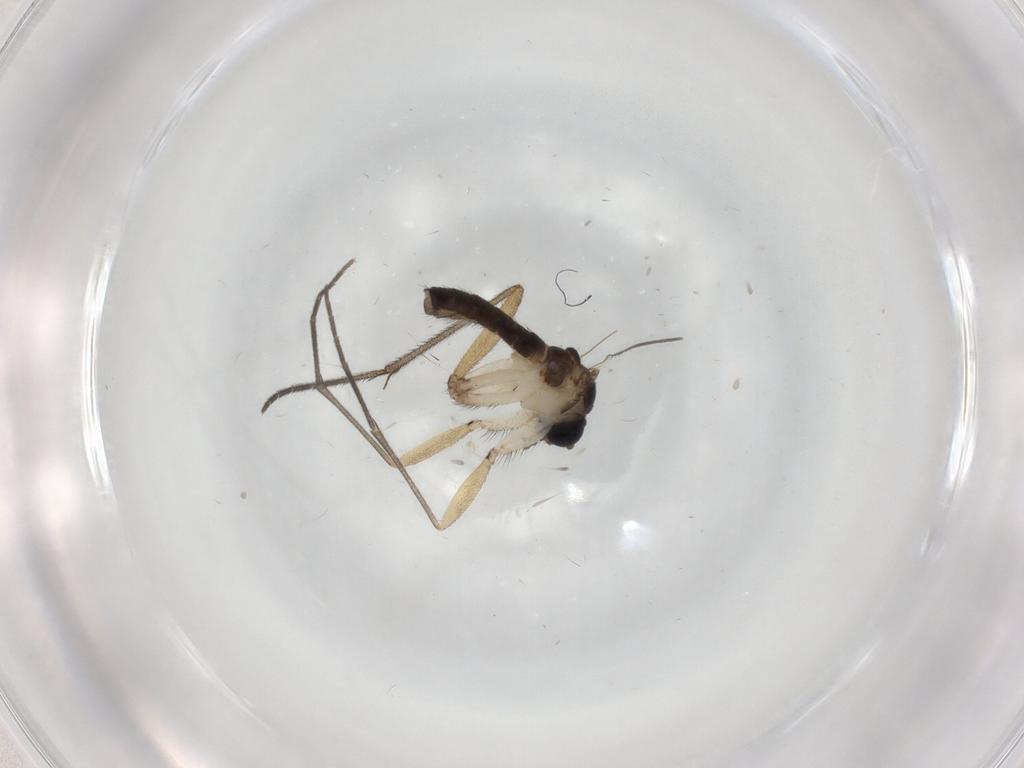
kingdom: Animalia
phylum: Arthropoda
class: Insecta
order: Diptera
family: Sciaridae
